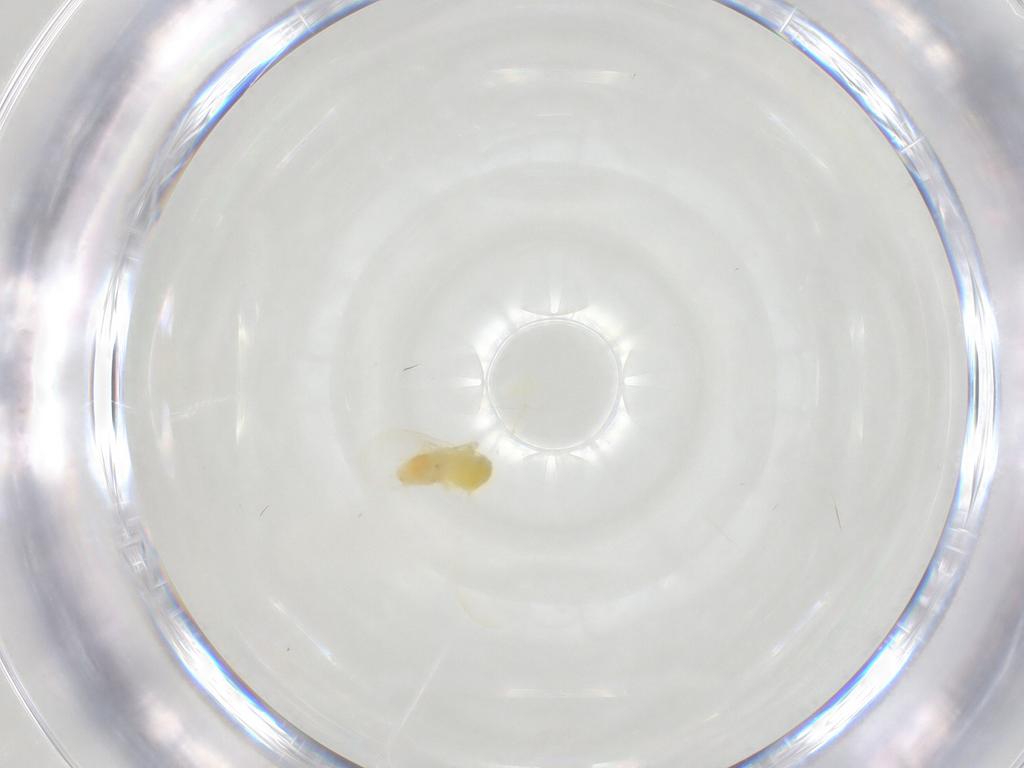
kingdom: Animalia
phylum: Arthropoda
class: Insecta
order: Hemiptera
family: Aleyrodidae
